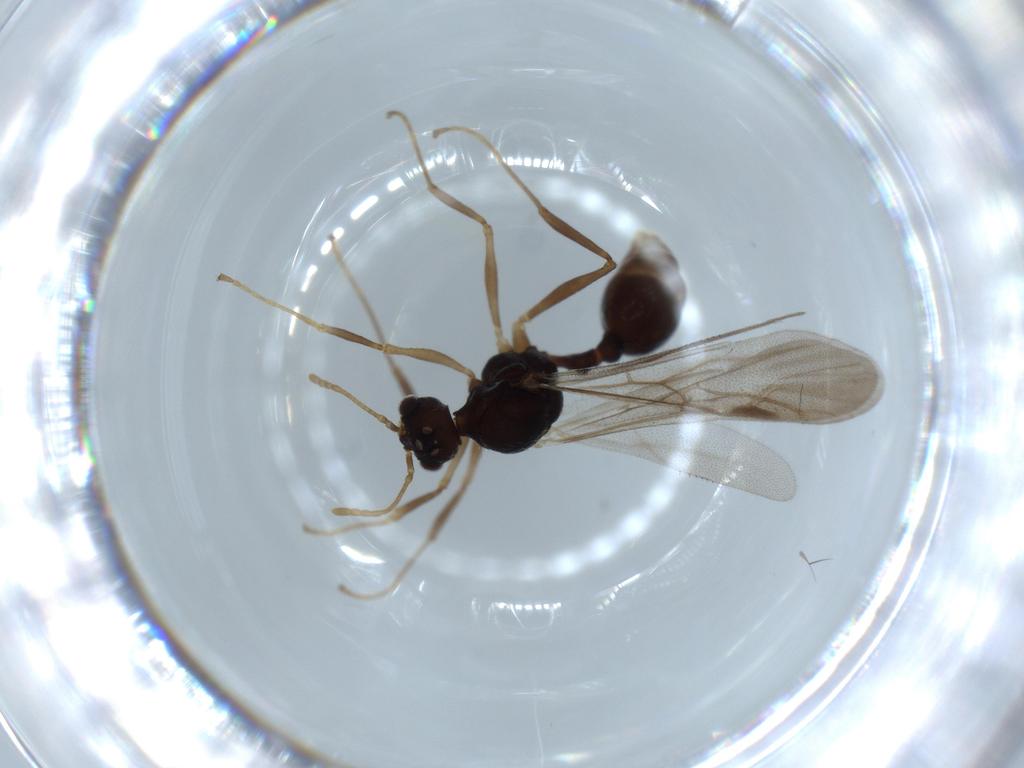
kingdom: Animalia
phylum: Arthropoda
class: Insecta
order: Hymenoptera
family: Formicidae
